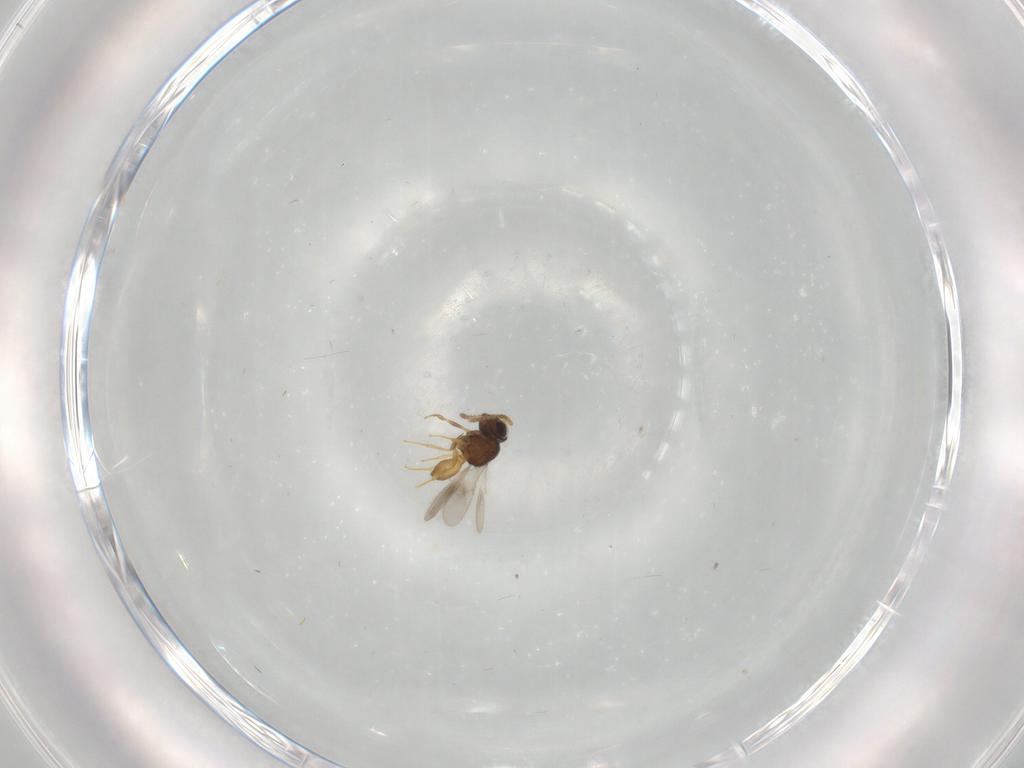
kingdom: Animalia
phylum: Arthropoda
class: Insecta
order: Hymenoptera
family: Scelionidae
